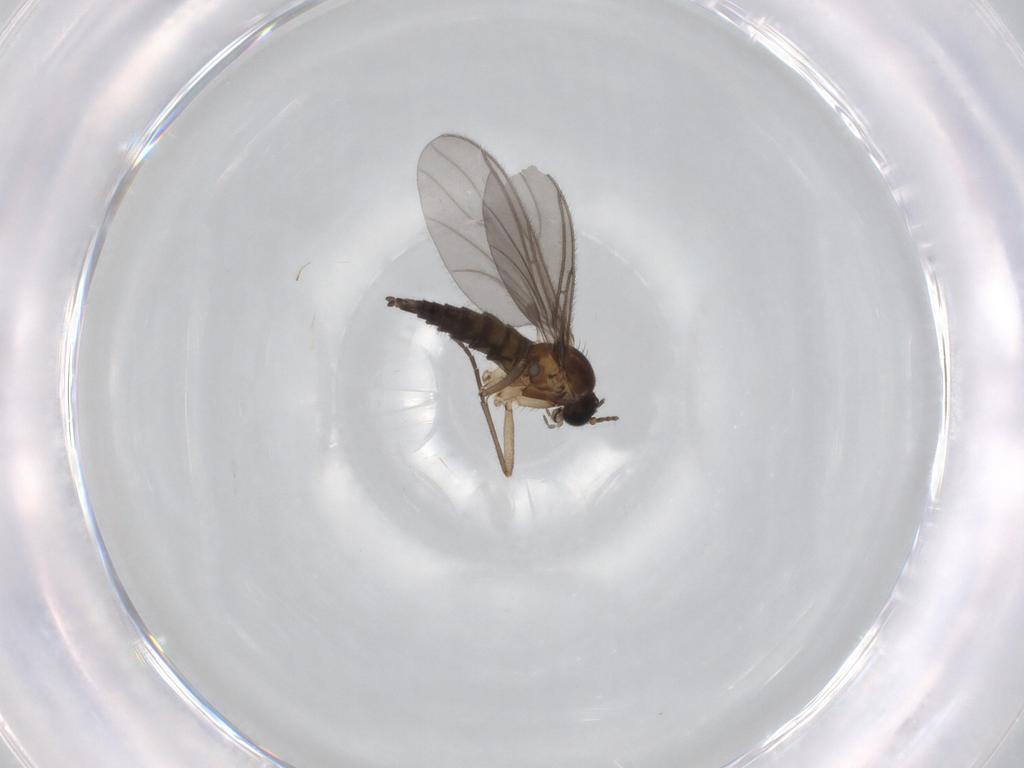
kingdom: Animalia
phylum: Arthropoda
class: Insecta
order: Diptera
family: Sciaridae
